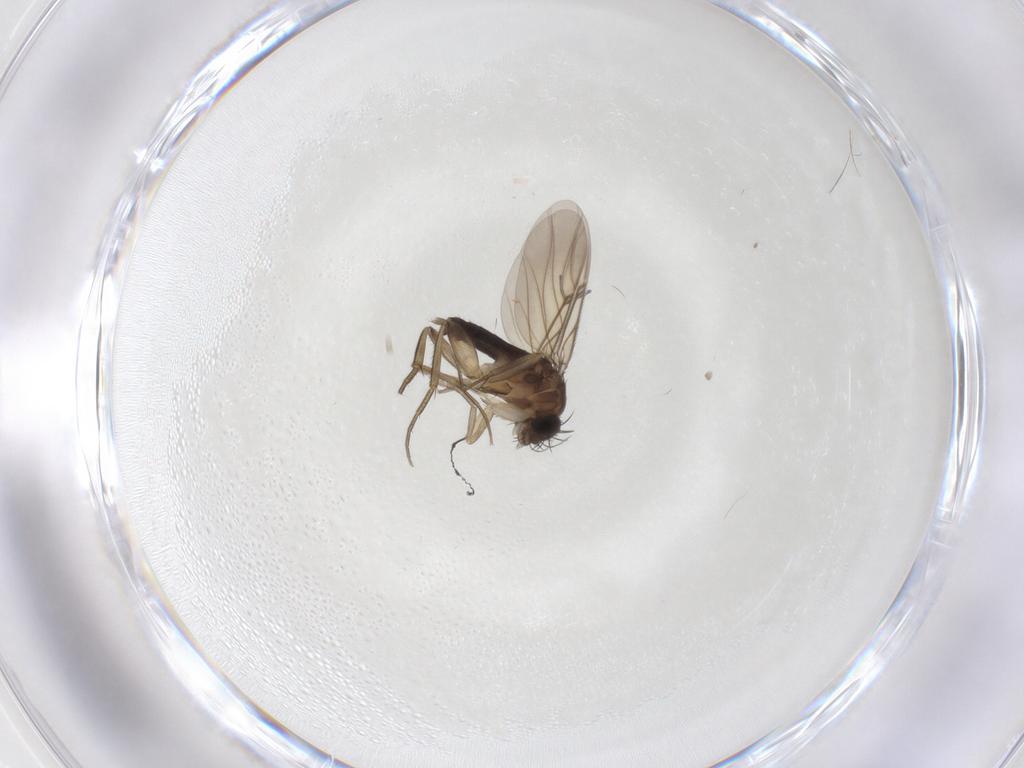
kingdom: Animalia
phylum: Arthropoda
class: Insecta
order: Diptera
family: Phoridae
